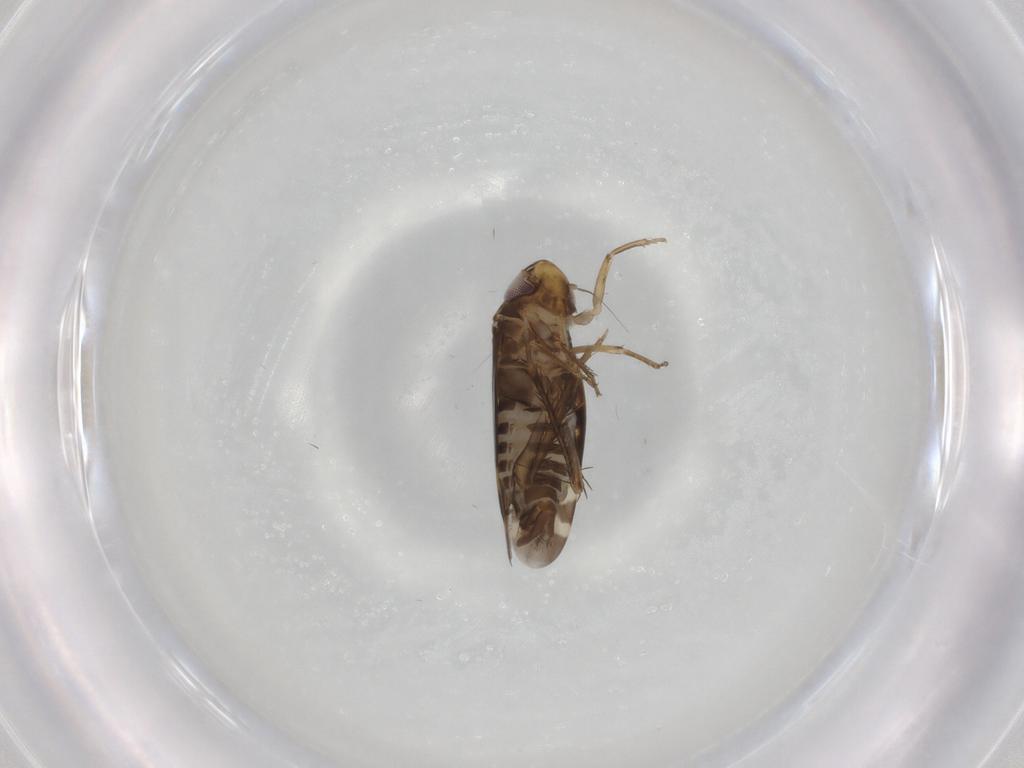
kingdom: Animalia
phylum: Arthropoda
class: Insecta
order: Hemiptera
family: Cicadellidae
